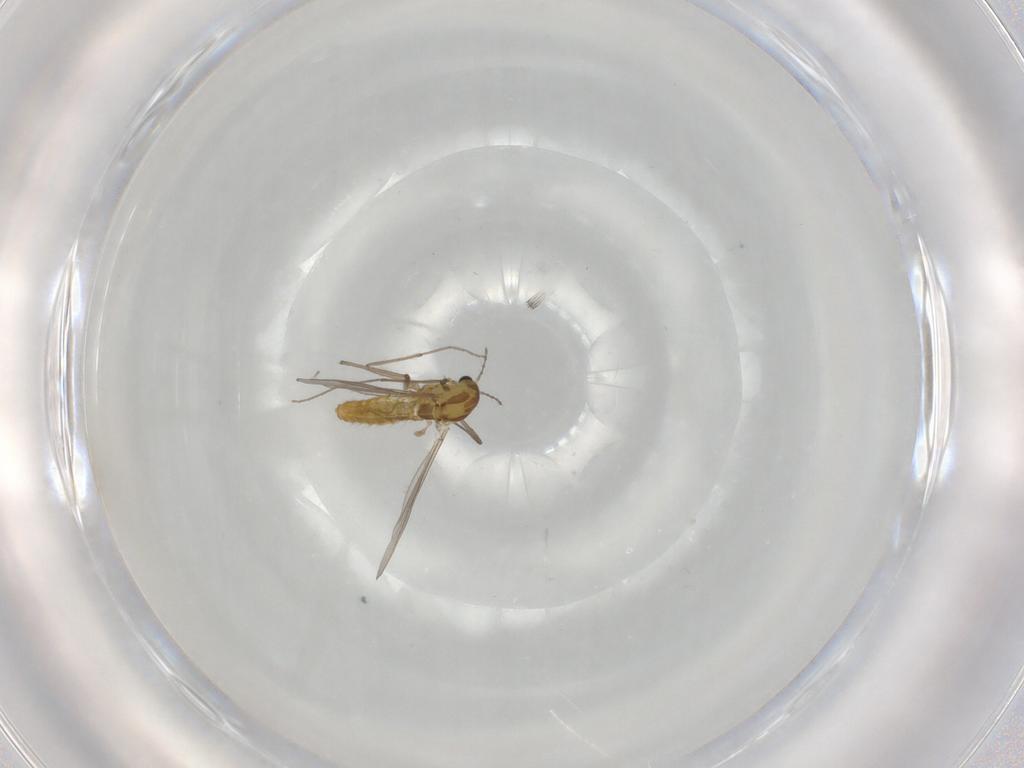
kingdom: Animalia
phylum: Arthropoda
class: Insecta
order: Diptera
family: Chironomidae
